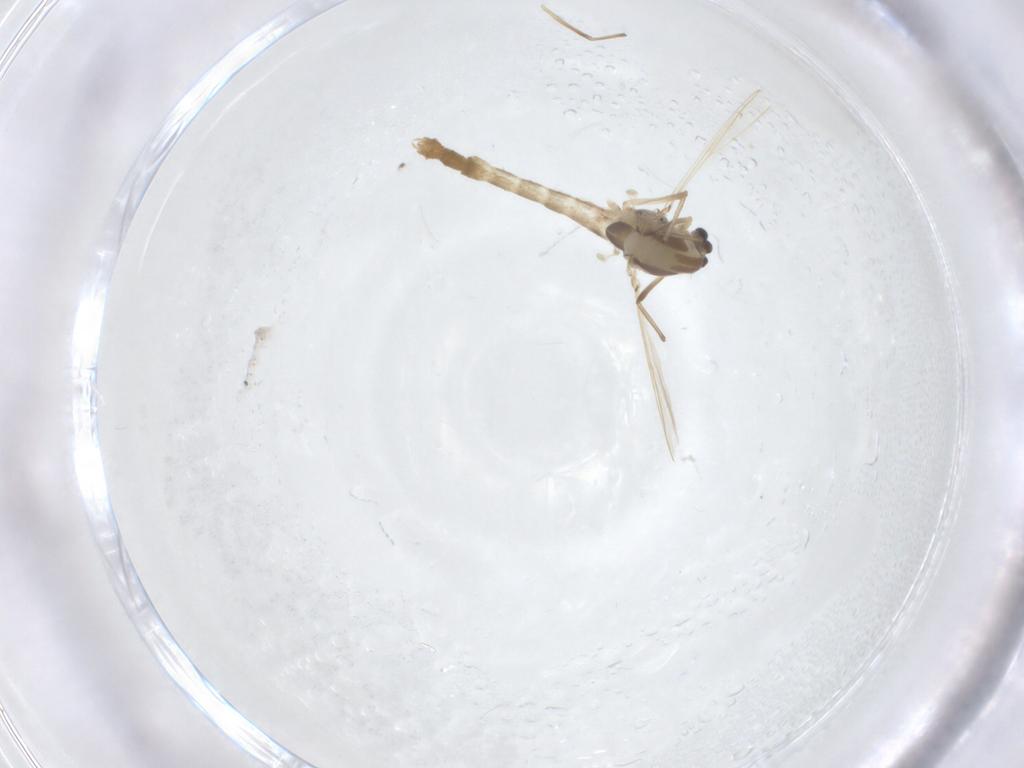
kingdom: Animalia
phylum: Arthropoda
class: Insecta
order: Diptera
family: Chironomidae
